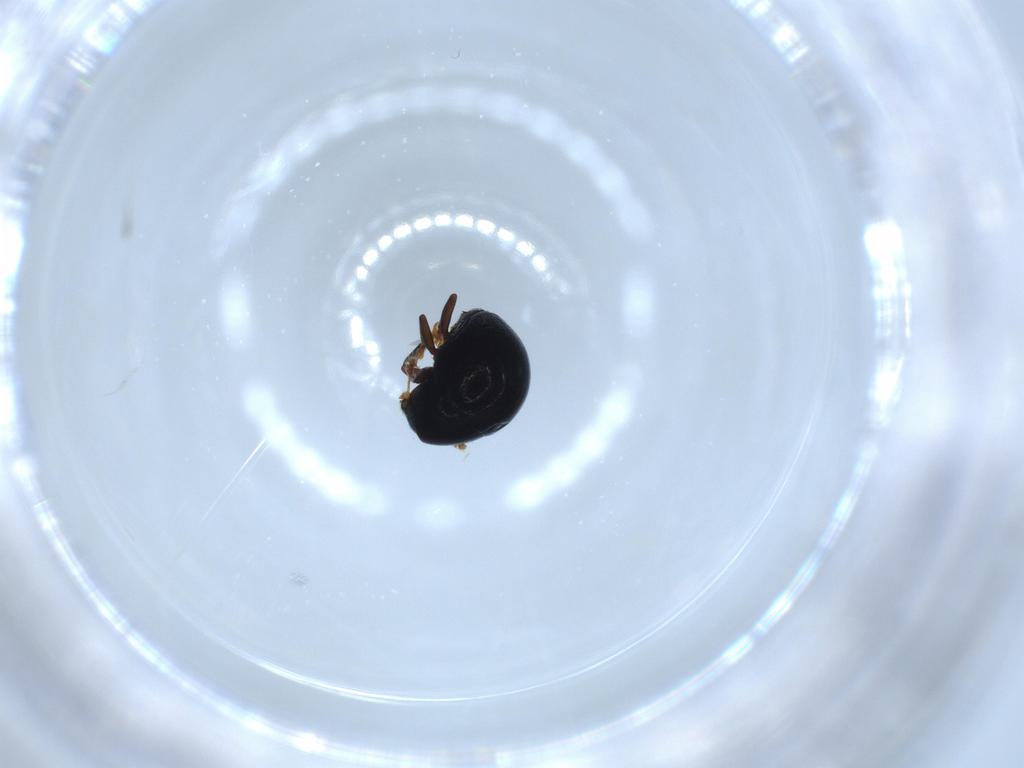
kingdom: Animalia
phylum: Arthropoda
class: Insecta
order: Coleoptera
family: Anthribidae
